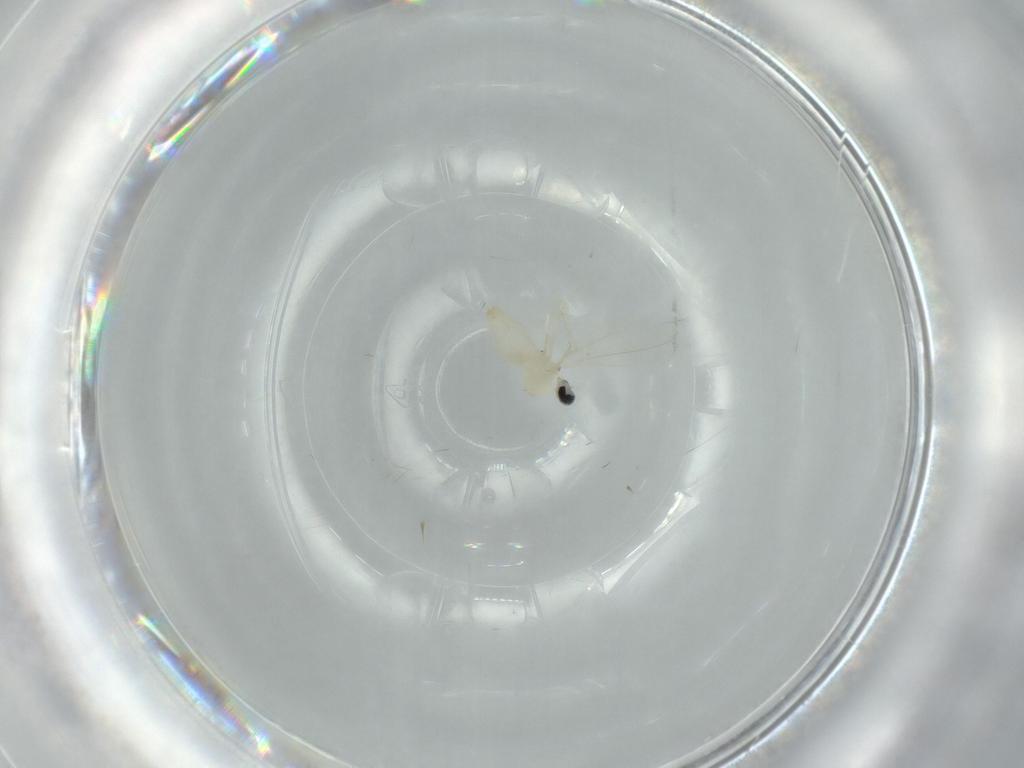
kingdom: Animalia
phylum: Arthropoda
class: Insecta
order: Diptera
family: Cecidomyiidae
